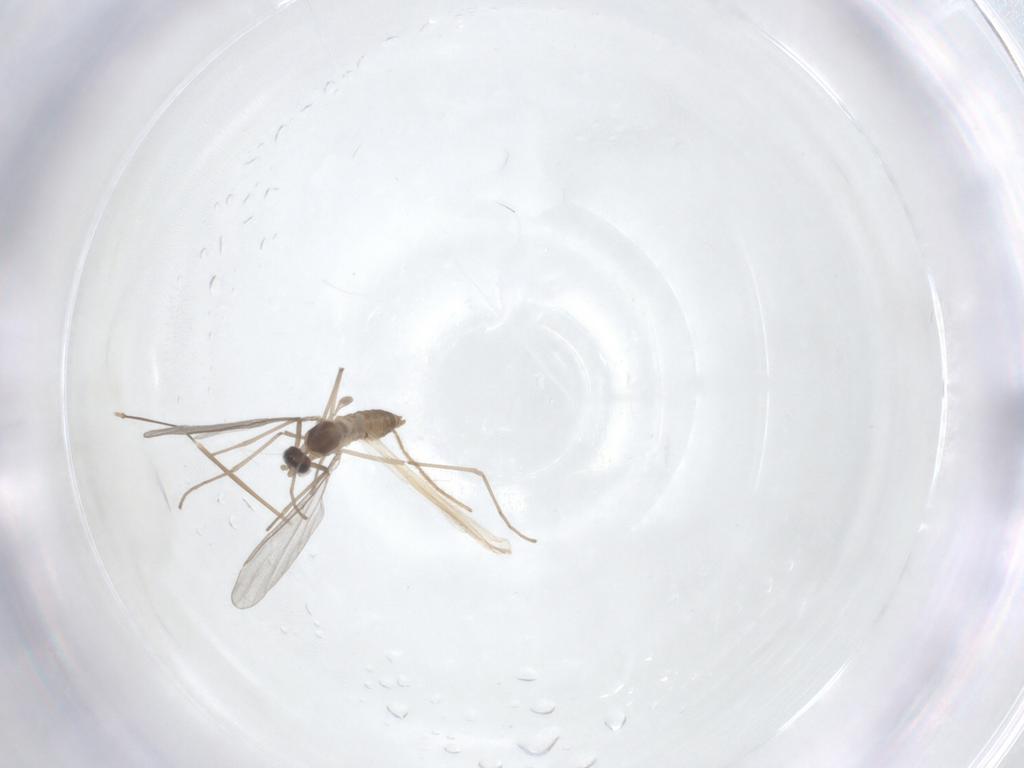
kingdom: Animalia
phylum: Arthropoda
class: Insecta
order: Diptera
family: Cecidomyiidae
